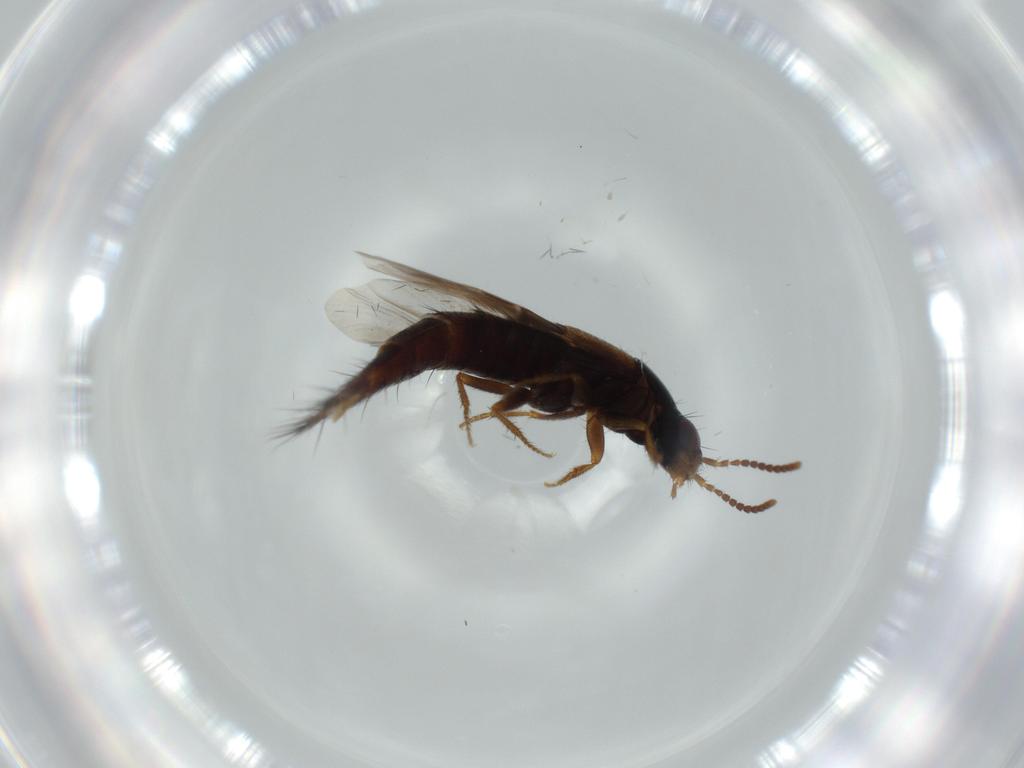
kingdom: Animalia
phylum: Arthropoda
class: Insecta
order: Coleoptera
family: Staphylinidae
